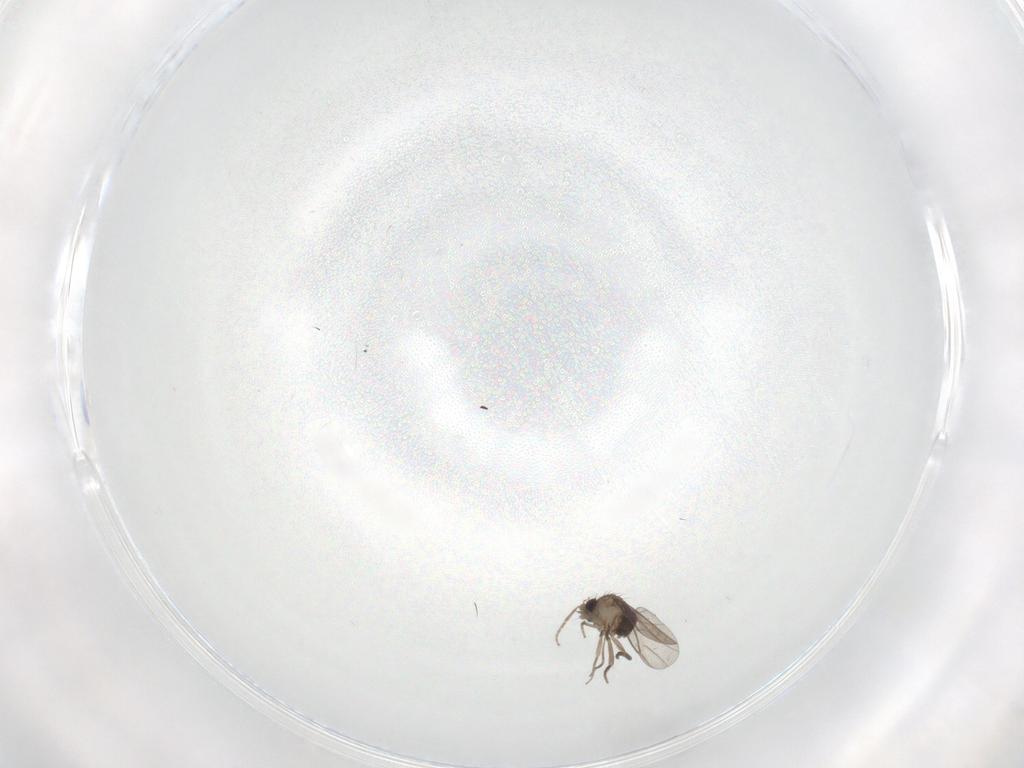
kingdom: Animalia
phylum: Arthropoda
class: Insecta
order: Diptera
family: Phoridae
